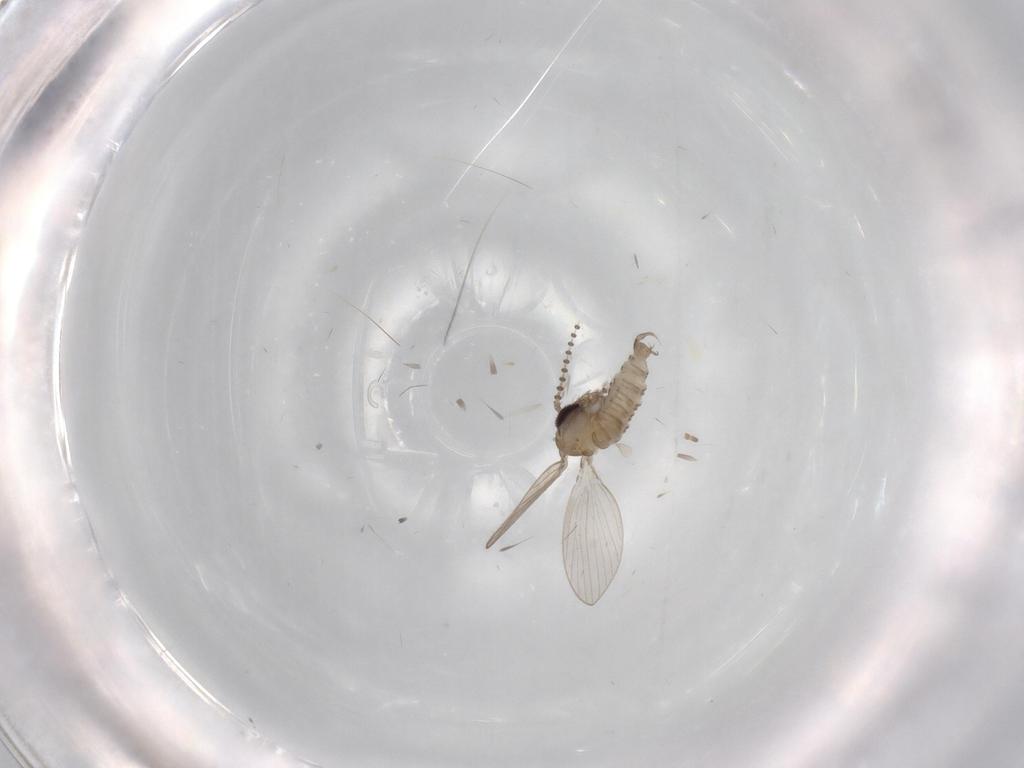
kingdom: Animalia
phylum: Arthropoda
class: Insecta
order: Diptera
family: Psychodidae
